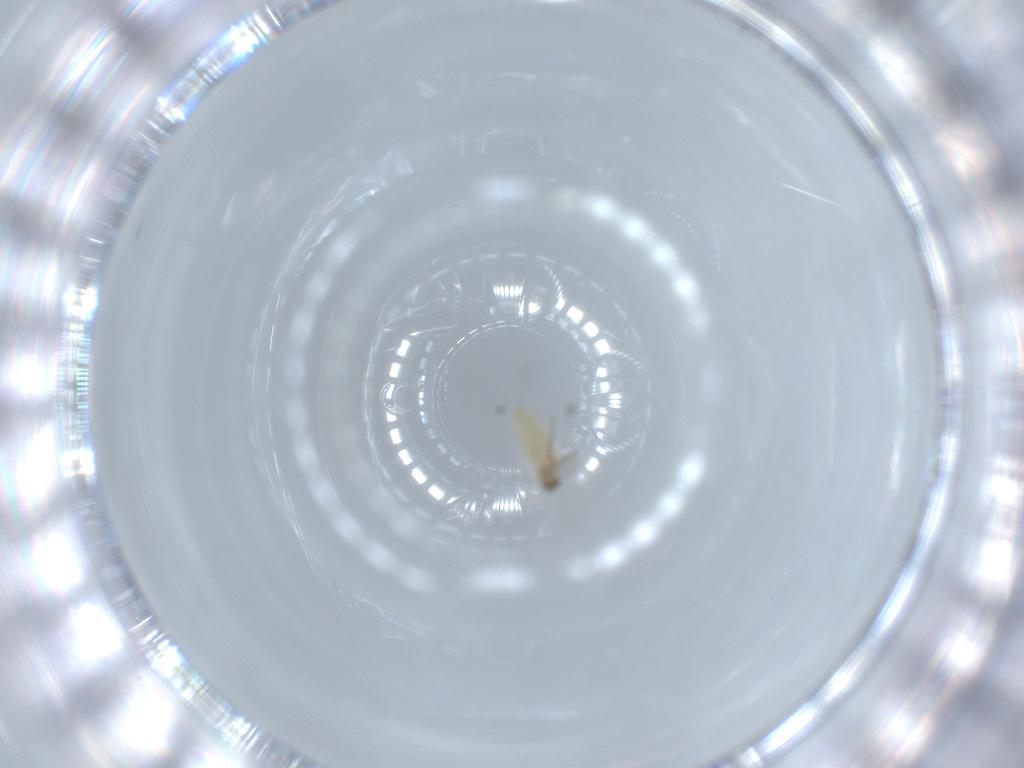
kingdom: Animalia
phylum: Arthropoda
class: Insecta
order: Diptera
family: Cecidomyiidae
